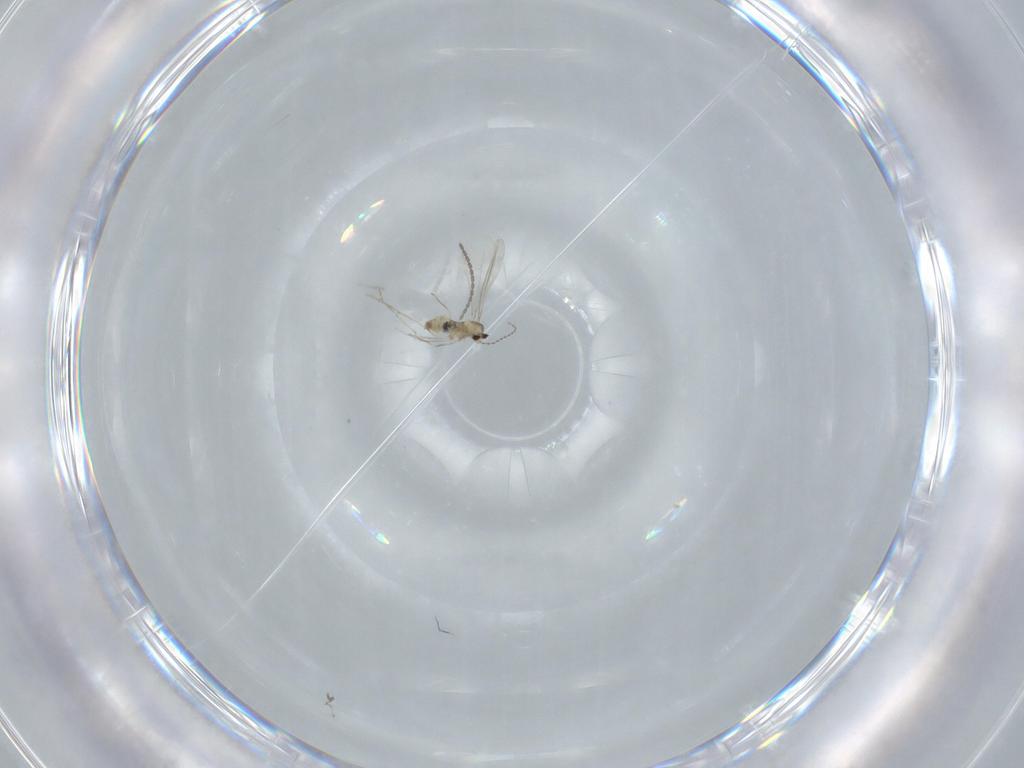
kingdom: Animalia
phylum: Arthropoda
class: Insecta
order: Diptera
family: Cecidomyiidae
